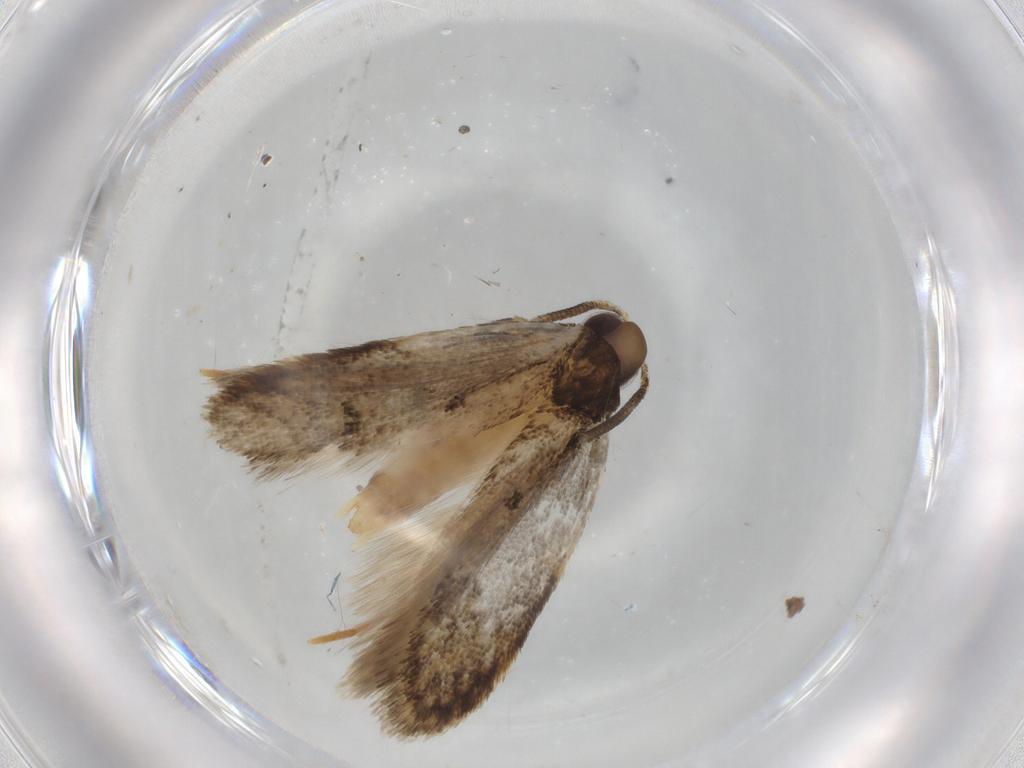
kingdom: Animalia
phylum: Arthropoda
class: Insecta
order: Lepidoptera
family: Autostichidae
